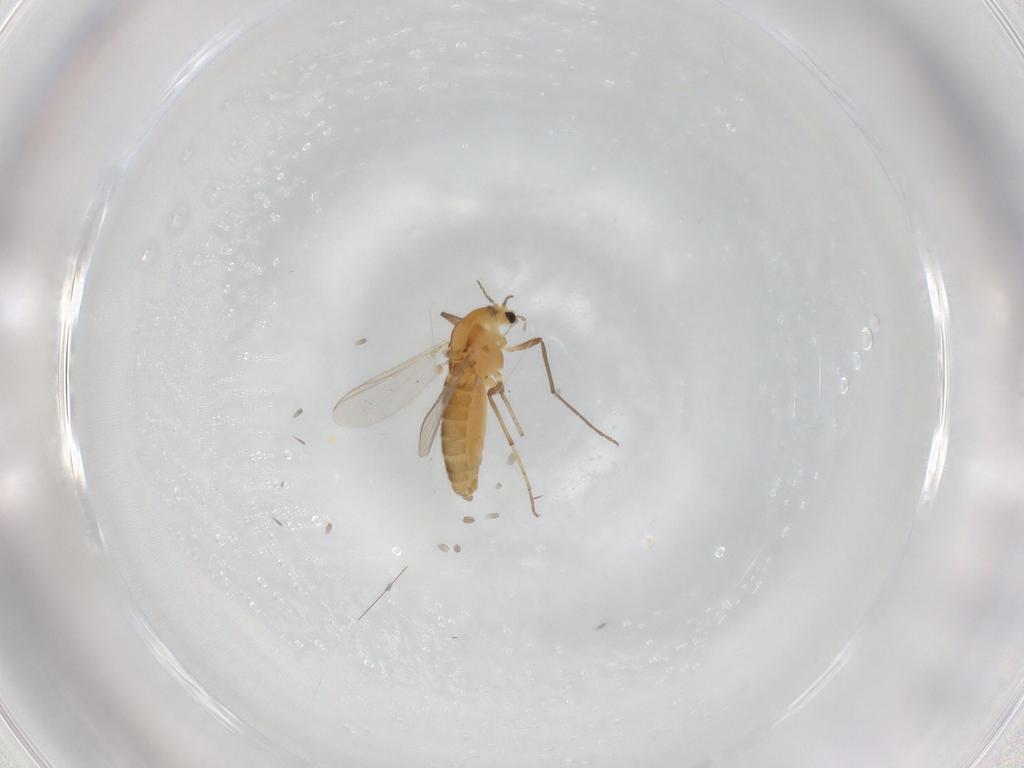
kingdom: Animalia
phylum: Arthropoda
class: Insecta
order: Diptera
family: Chironomidae
